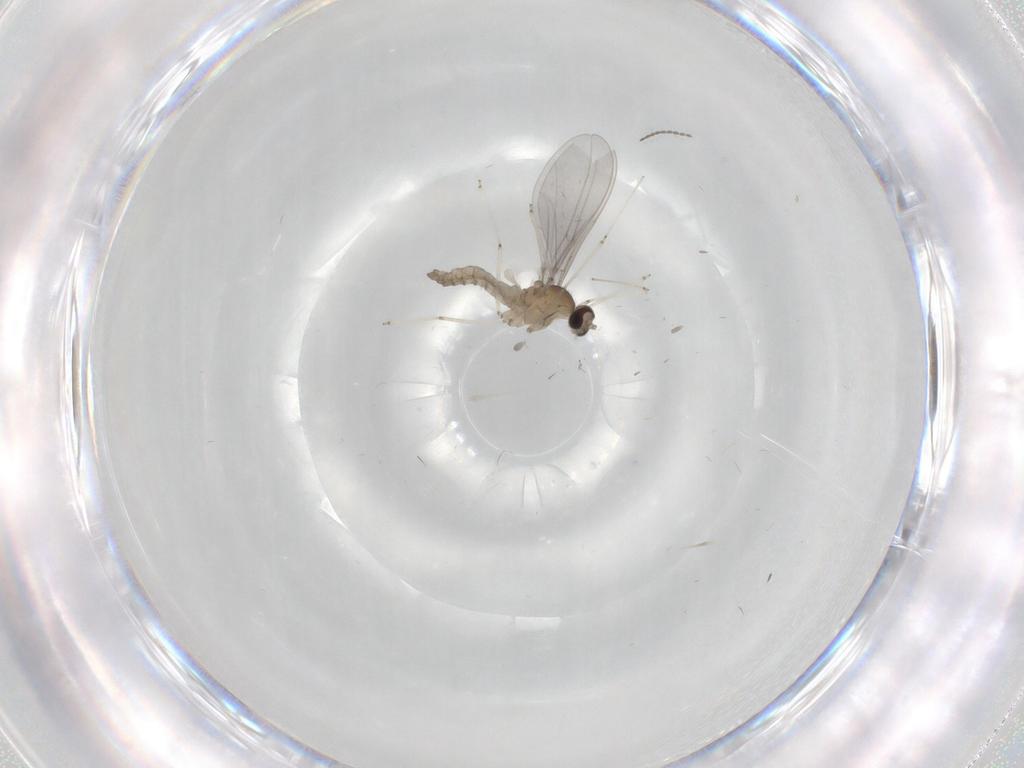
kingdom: Animalia
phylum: Arthropoda
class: Insecta
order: Diptera
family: Cecidomyiidae
